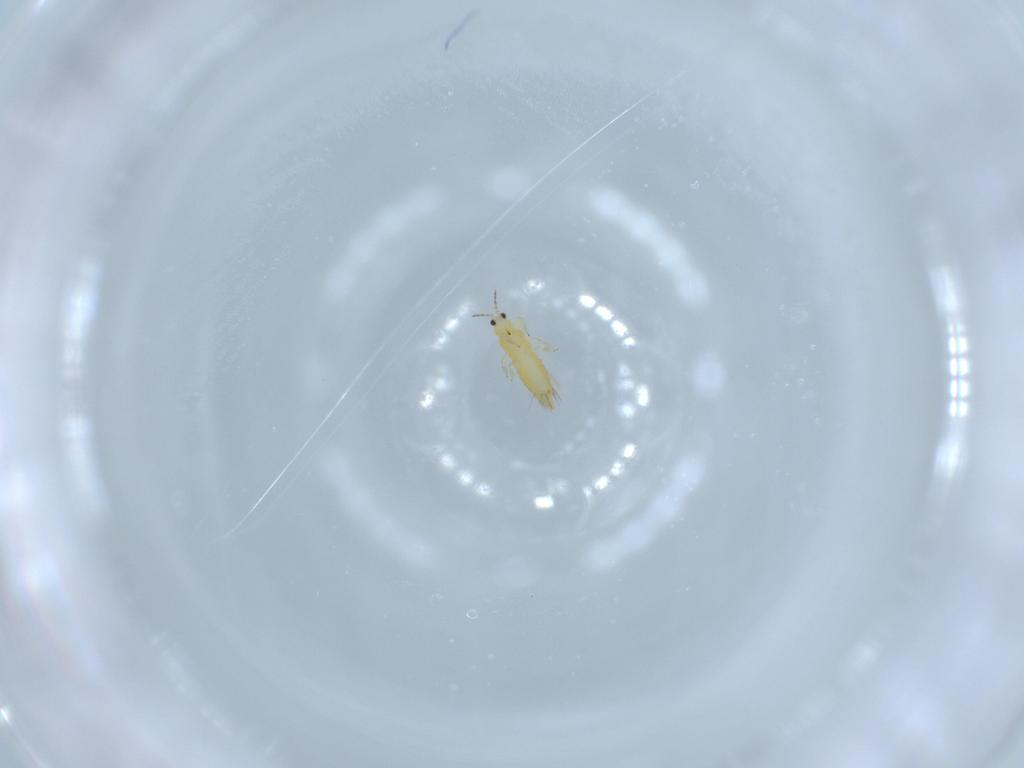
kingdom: Animalia
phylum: Arthropoda
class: Insecta
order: Thysanoptera
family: Thripidae
